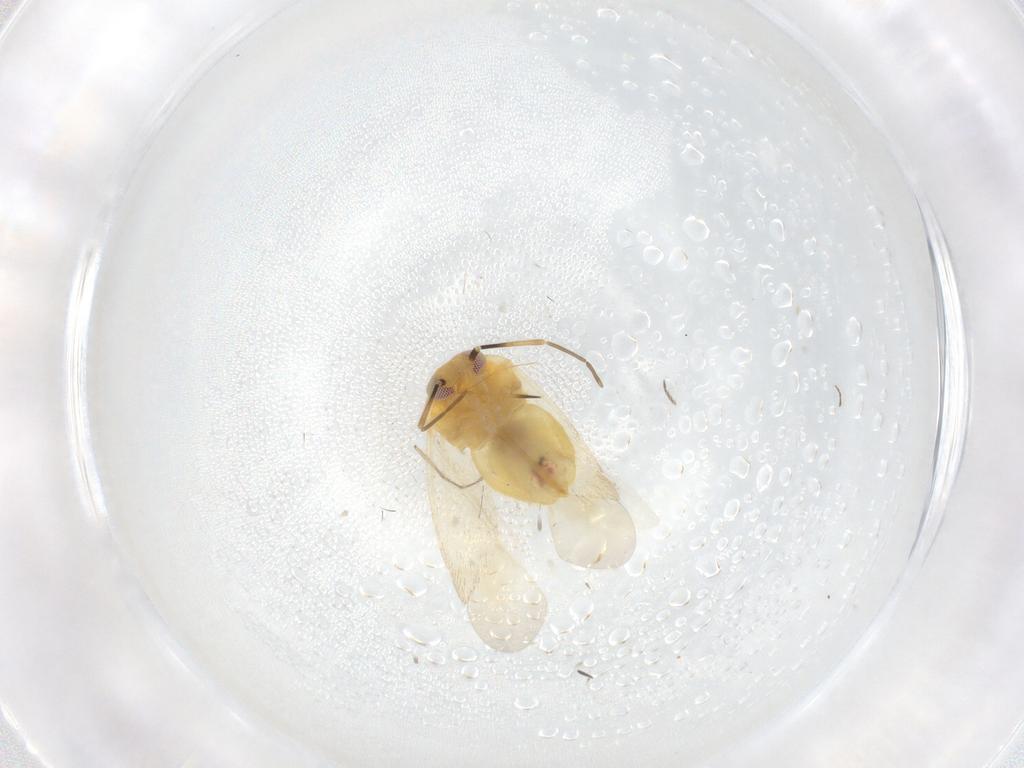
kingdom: Animalia
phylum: Arthropoda
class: Insecta
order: Hemiptera
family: Miridae
